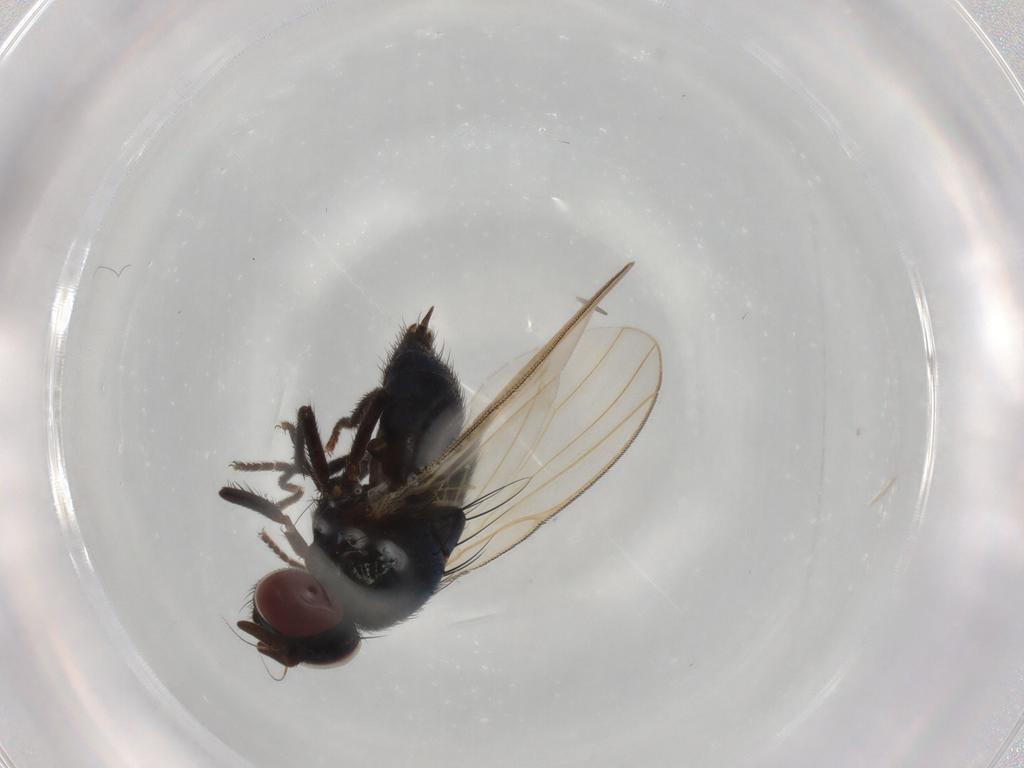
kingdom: Animalia
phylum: Arthropoda
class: Insecta
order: Diptera
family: Lonchaeidae
